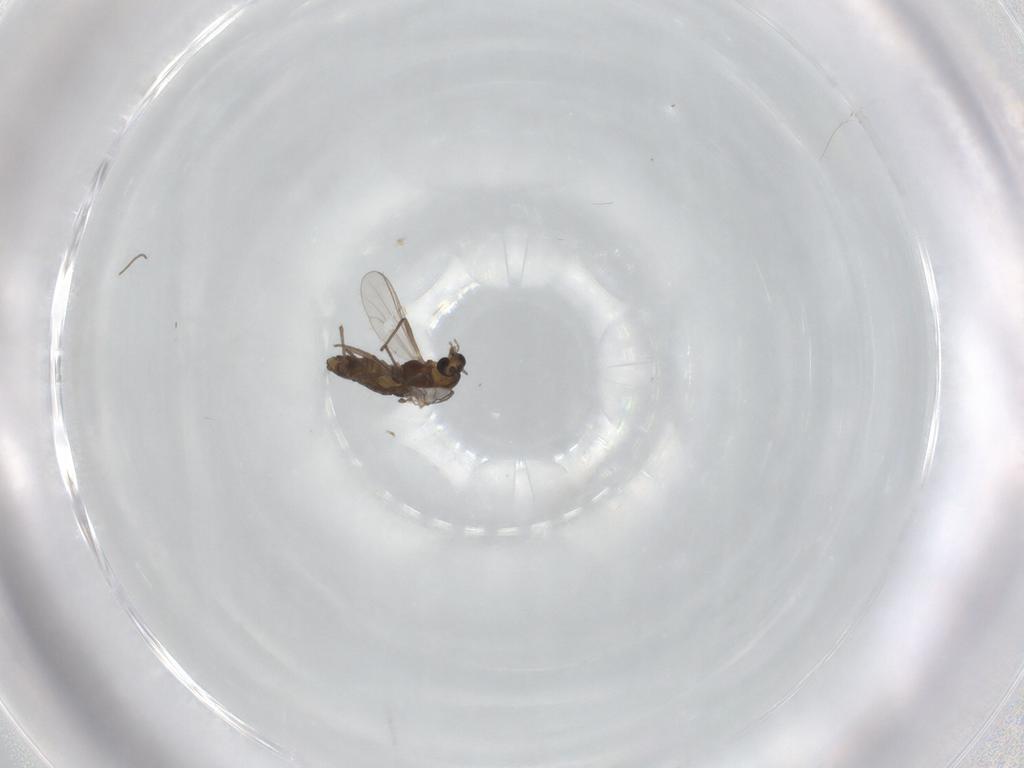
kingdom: Animalia
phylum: Arthropoda
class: Insecta
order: Diptera
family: Chironomidae
